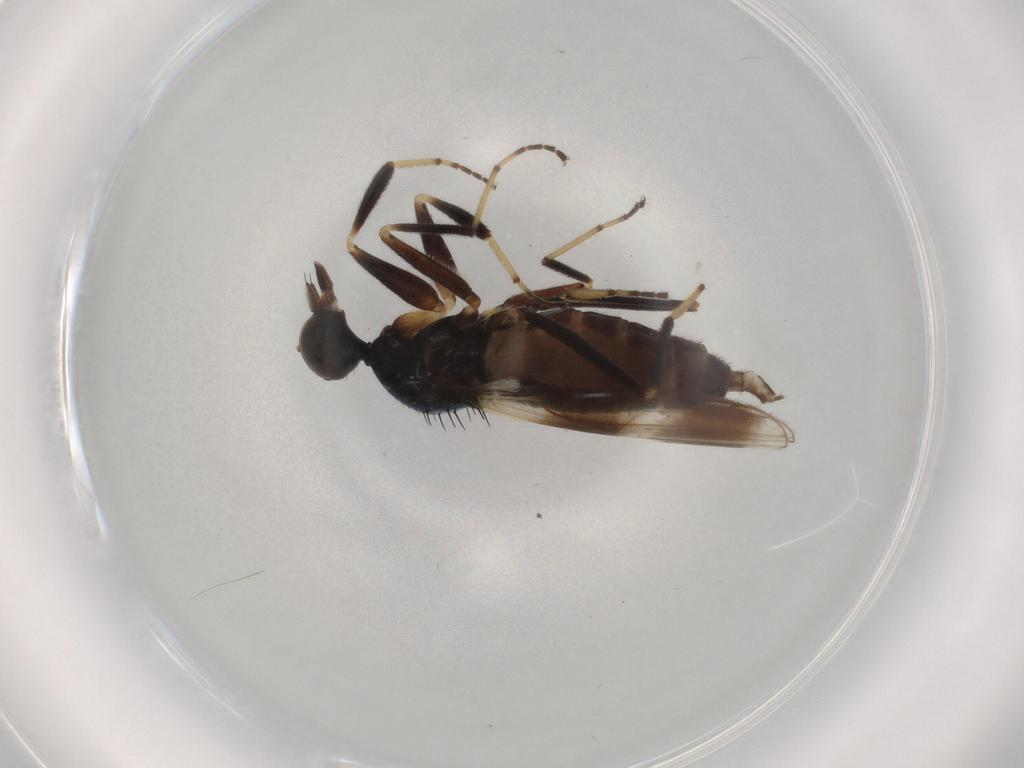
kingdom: Animalia
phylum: Arthropoda
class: Insecta
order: Diptera
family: Hybotidae
